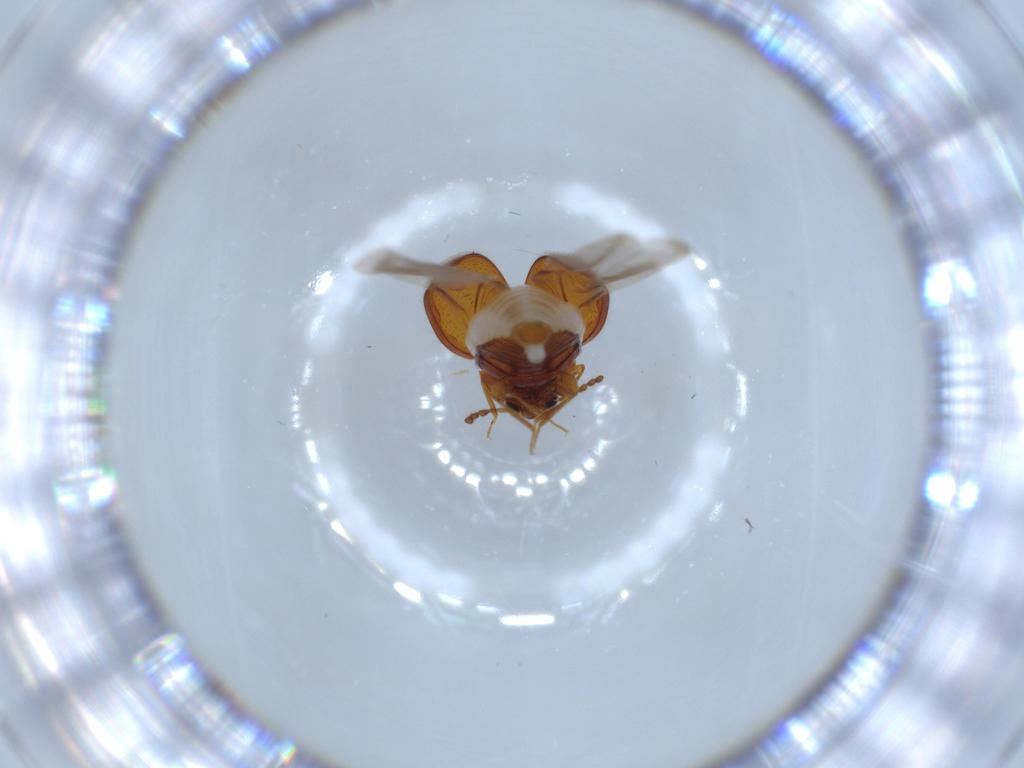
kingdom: Animalia
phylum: Arthropoda
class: Insecta
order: Coleoptera
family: Anamorphidae
